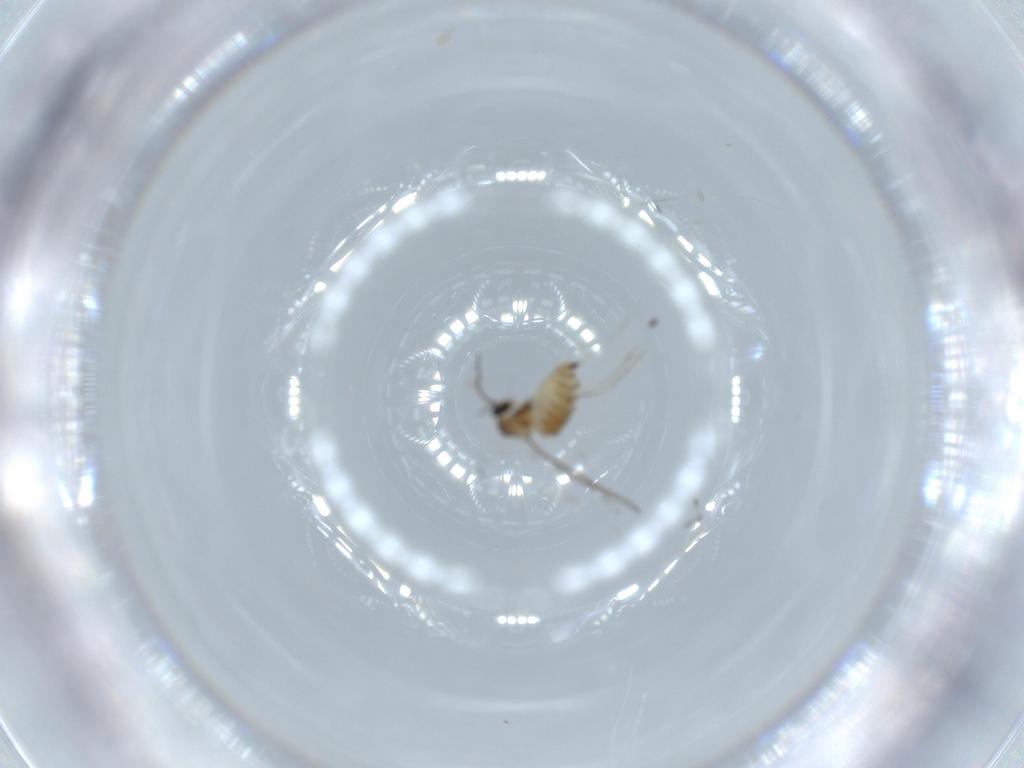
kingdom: Animalia
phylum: Arthropoda
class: Insecta
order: Diptera
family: Cecidomyiidae
